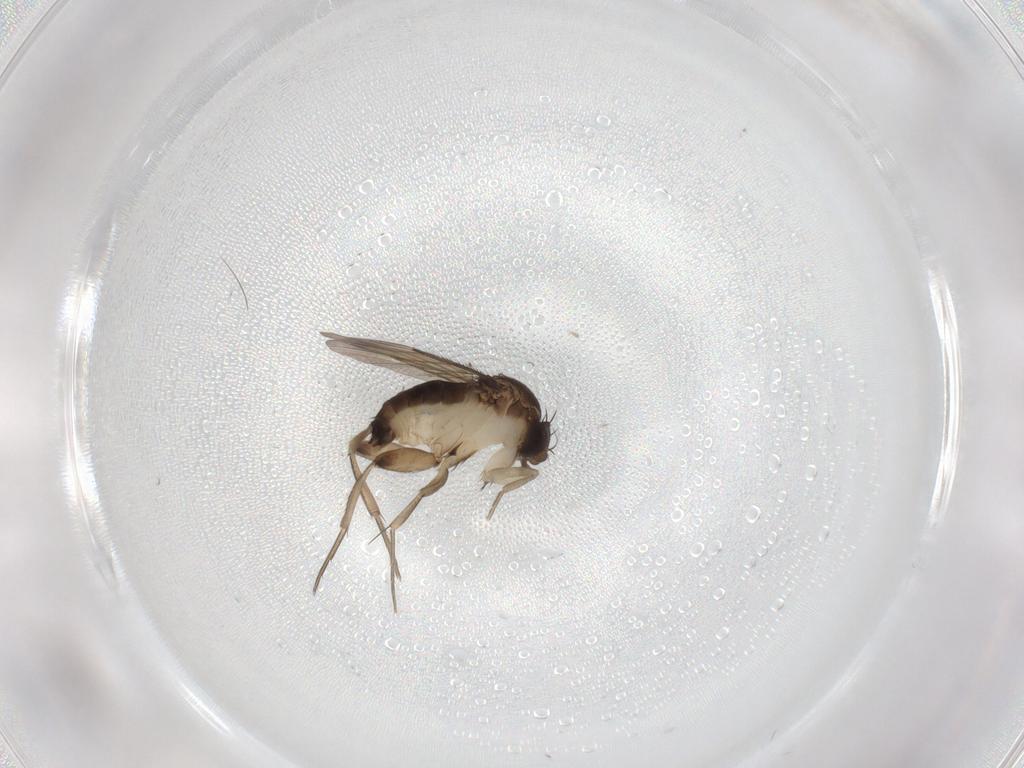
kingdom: Animalia
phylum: Arthropoda
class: Insecta
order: Diptera
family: Phoridae
